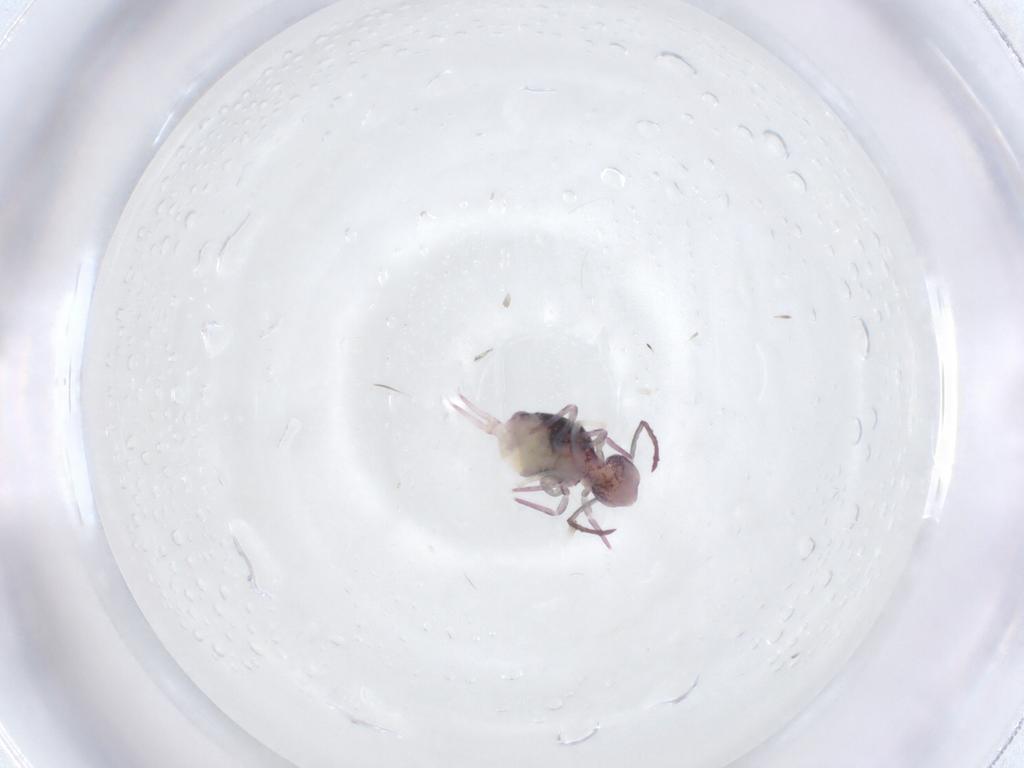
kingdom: Animalia
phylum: Arthropoda
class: Collembola
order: Symphypleona
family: Dicyrtomidae
